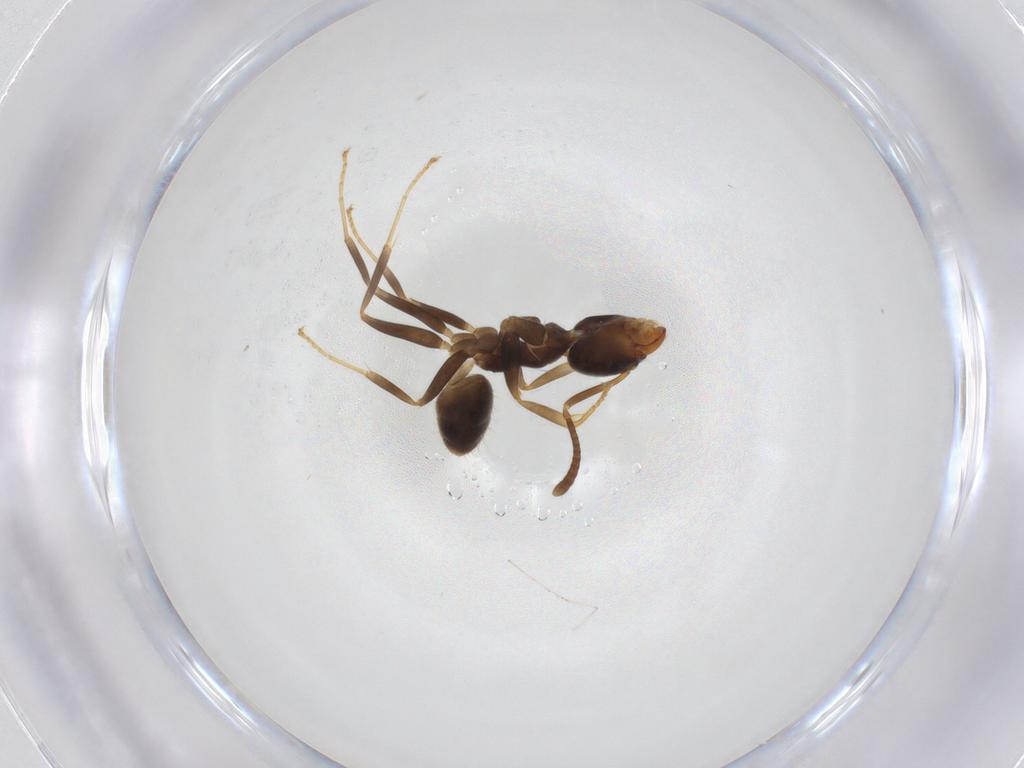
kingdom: Animalia
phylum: Arthropoda
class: Insecta
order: Hymenoptera
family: Formicidae
